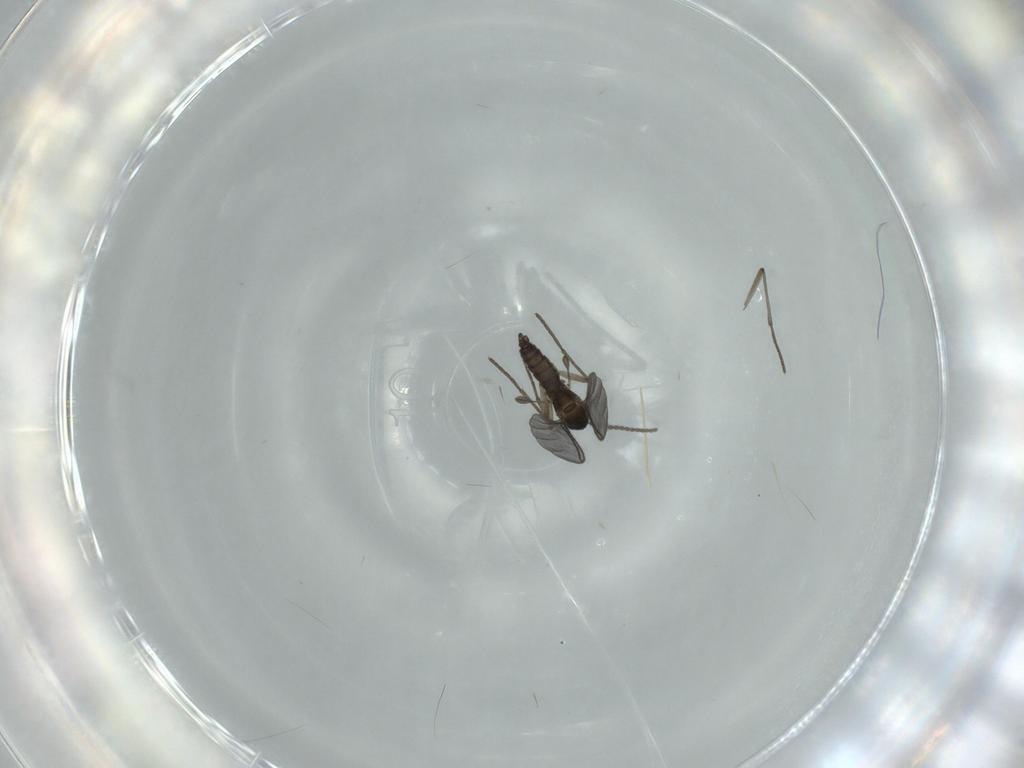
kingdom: Animalia
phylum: Arthropoda
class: Insecta
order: Diptera
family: Sciaridae
